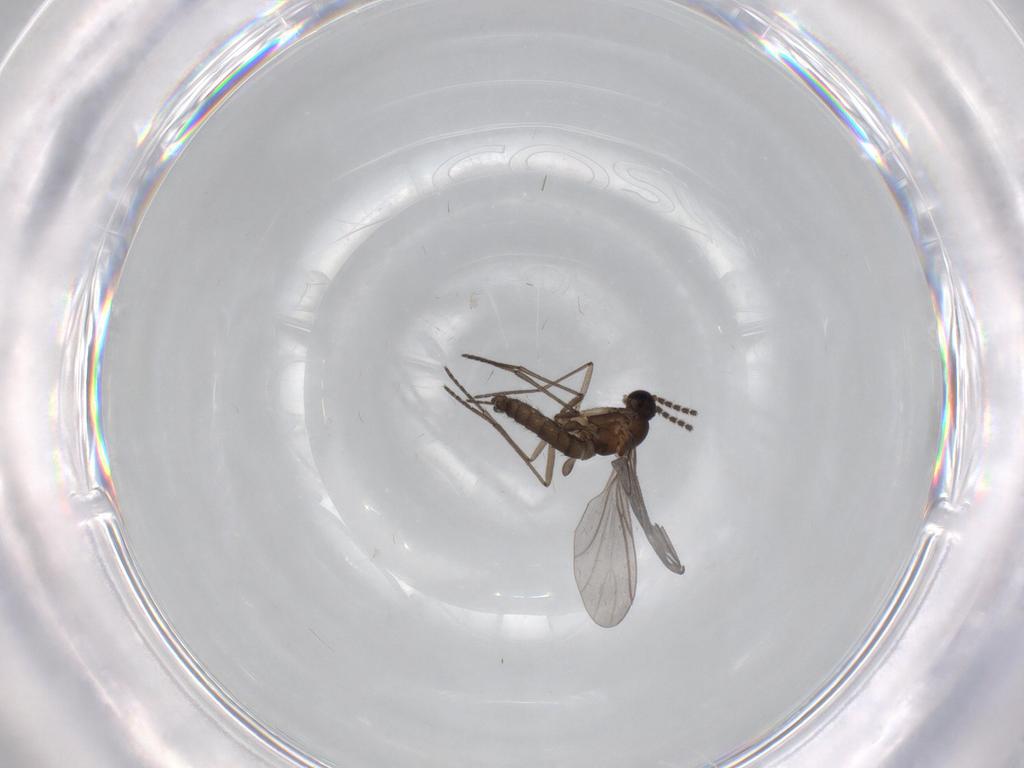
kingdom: Animalia
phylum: Arthropoda
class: Insecta
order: Diptera
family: Sciaridae
